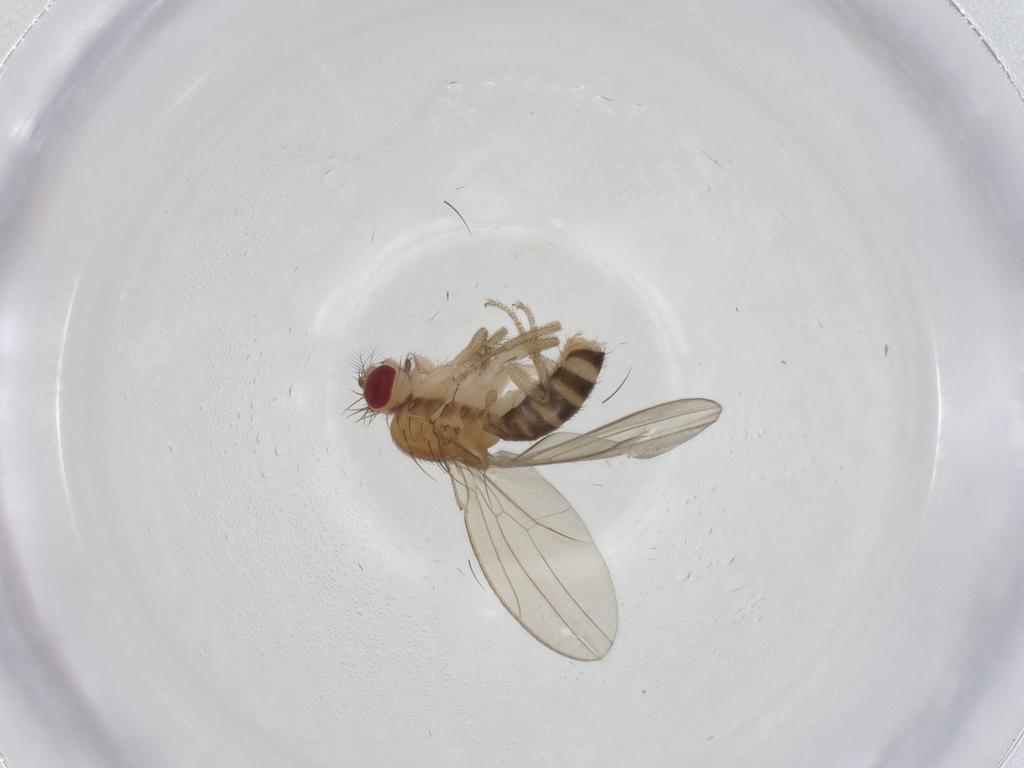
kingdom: Animalia
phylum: Arthropoda
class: Insecta
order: Diptera
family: Drosophilidae
